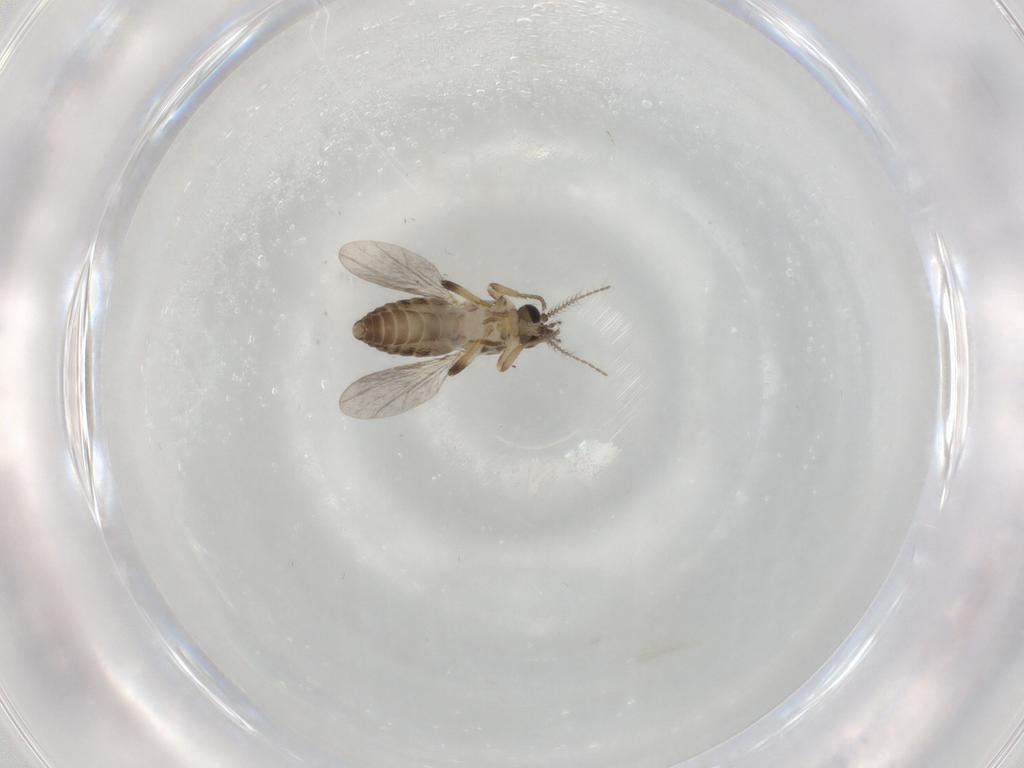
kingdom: Animalia
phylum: Arthropoda
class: Insecta
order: Diptera
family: Ceratopogonidae
